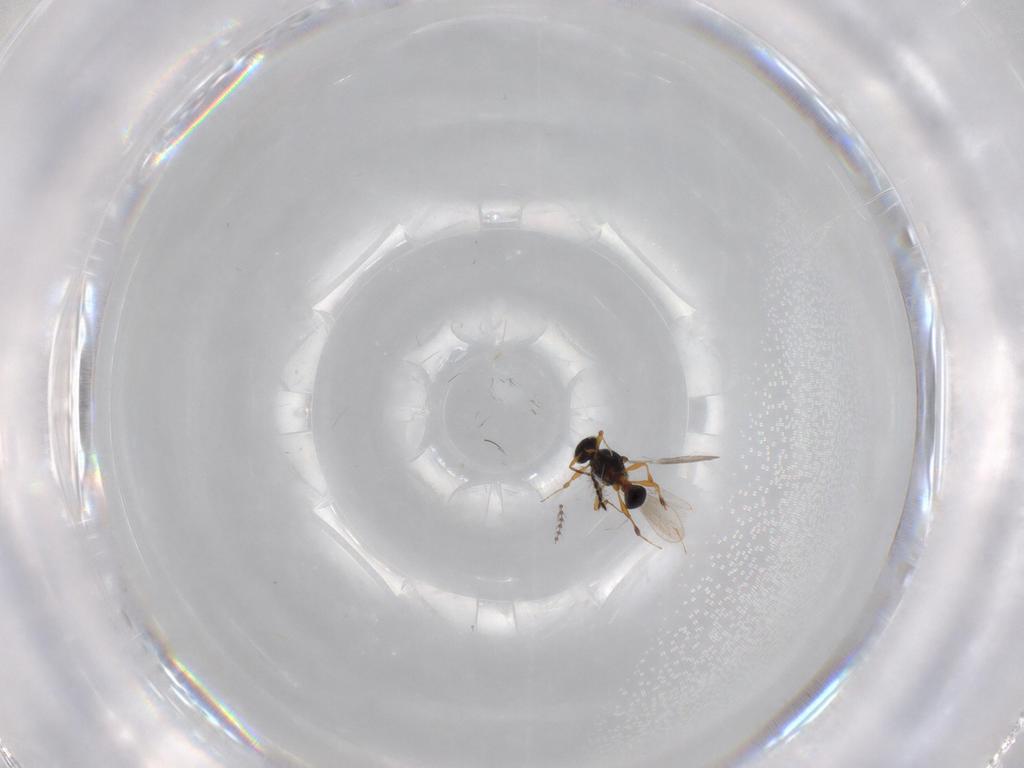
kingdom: Animalia
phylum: Arthropoda
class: Insecta
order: Hymenoptera
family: Platygastridae
